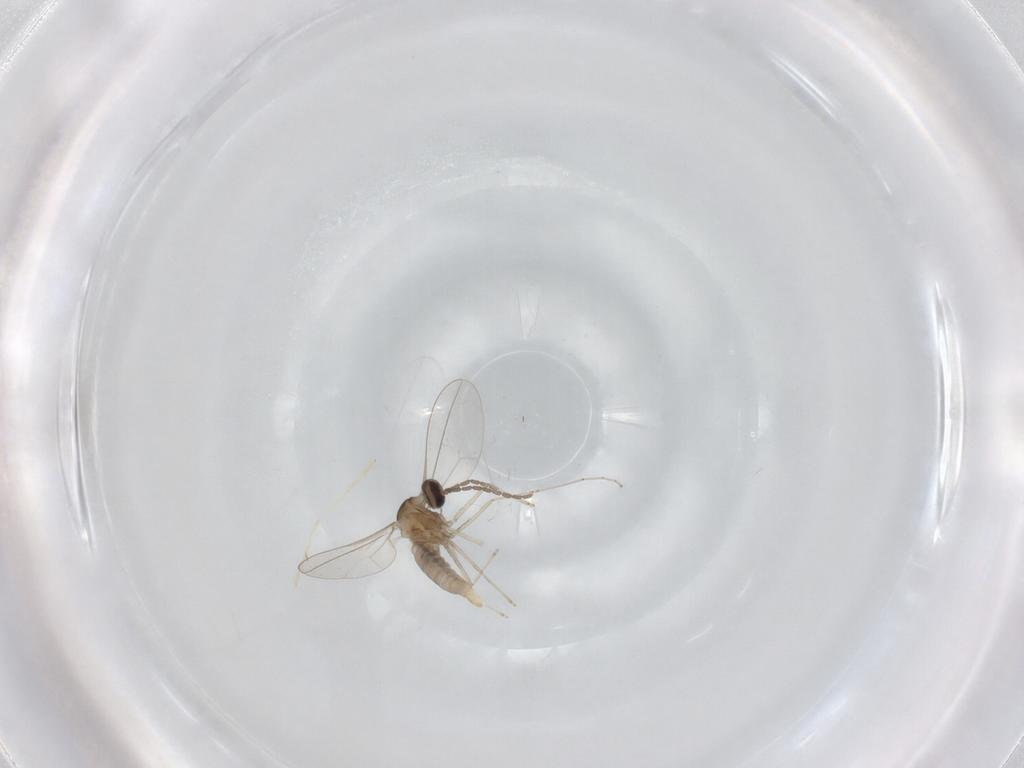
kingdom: Animalia
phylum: Arthropoda
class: Insecta
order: Diptera
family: Cecidomyiidae
